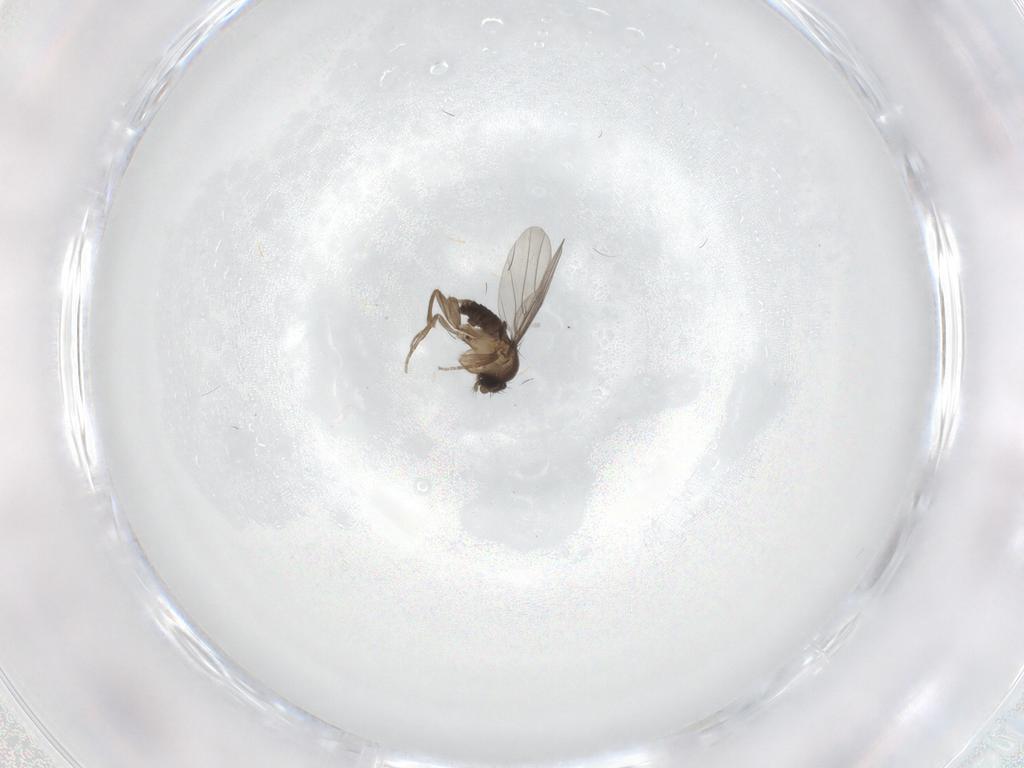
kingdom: Animalia
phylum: Arthropoda
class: Insecta
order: Diptera
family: Phoridae
